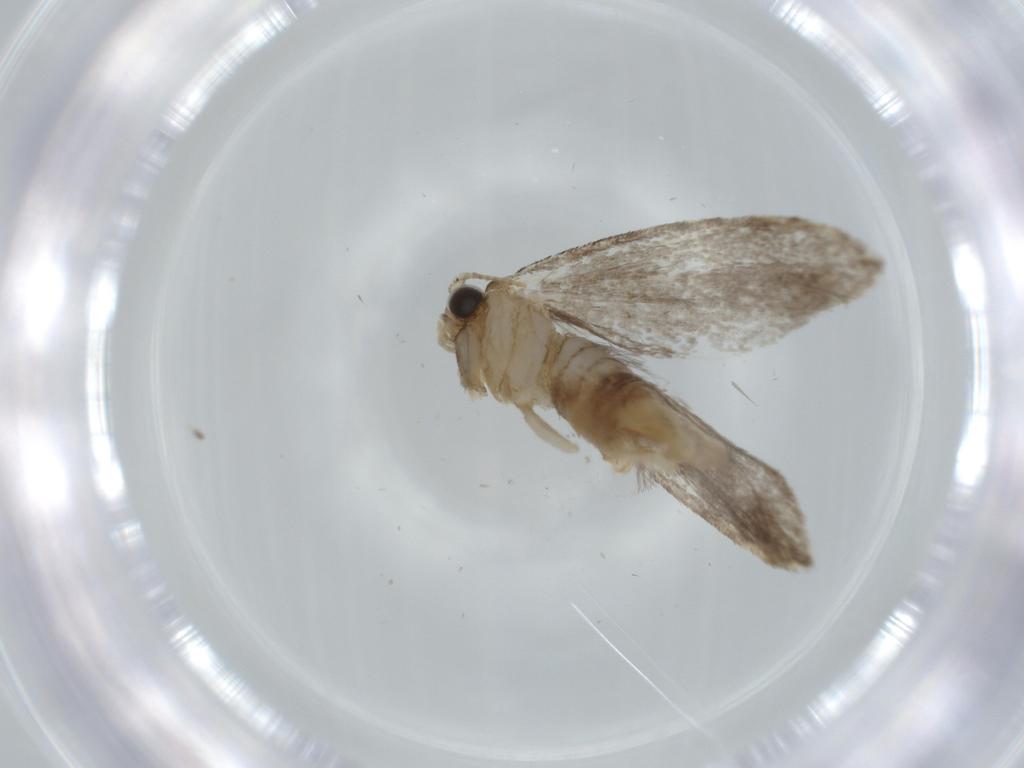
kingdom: Animalia
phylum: Arthropoda
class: Insecta
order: Lepidoptera
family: Tineidae
